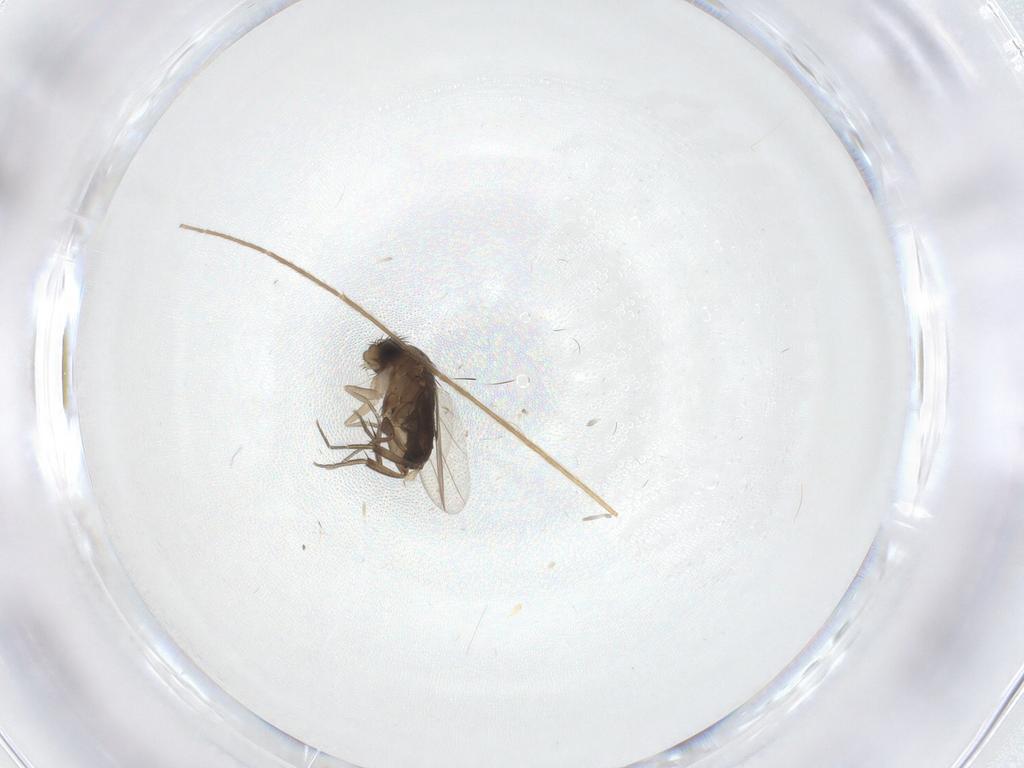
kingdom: Animalia
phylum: Arthropoda
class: Insecta
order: Diptera
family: Phoridae
